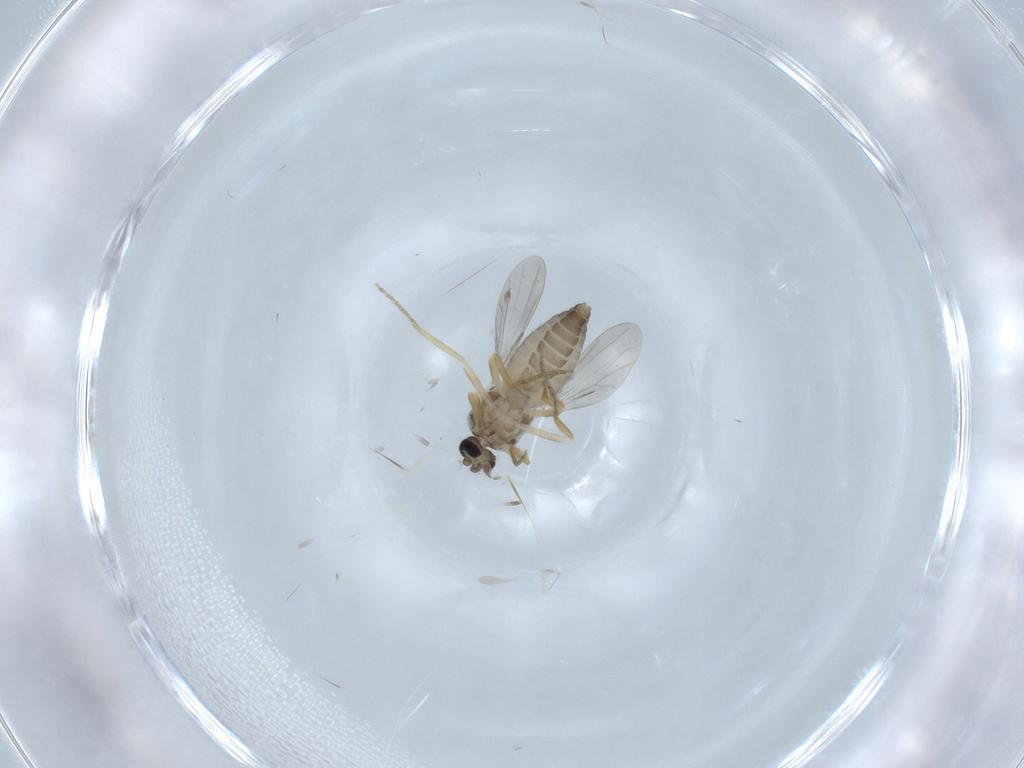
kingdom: Animalia
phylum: Arthropoda
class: Insecta
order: Diptera
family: Ceratopogonidae
